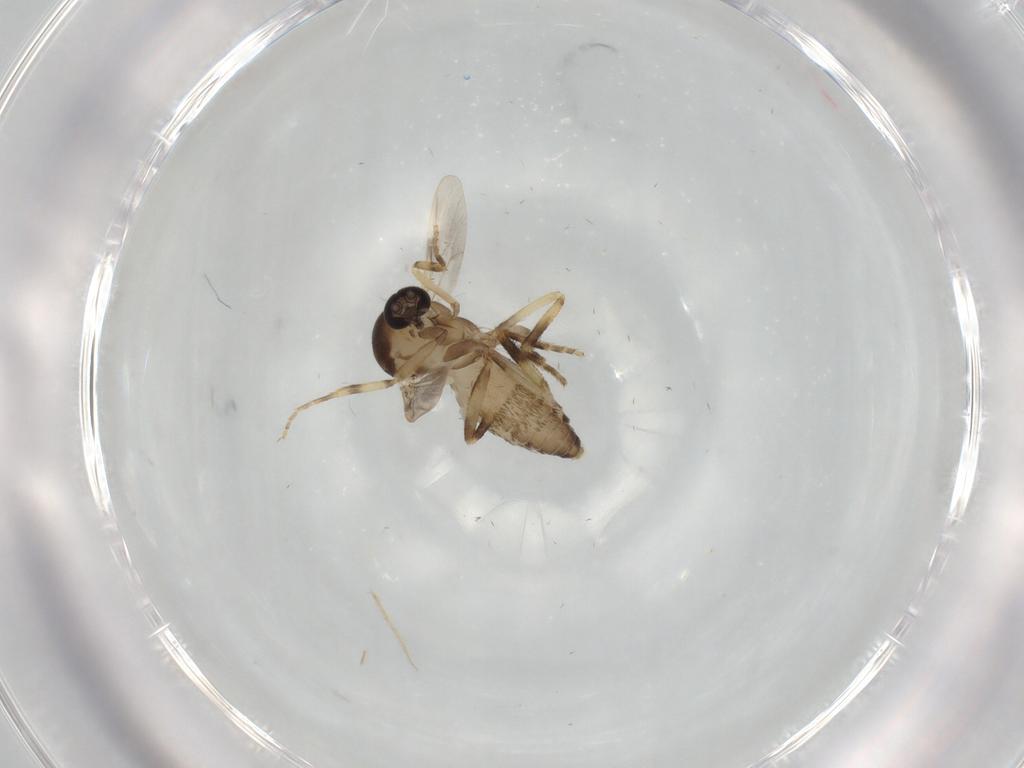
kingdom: Animalia
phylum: Arthropoda
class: Insecta
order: Diptera
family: Ceratopogonidae
